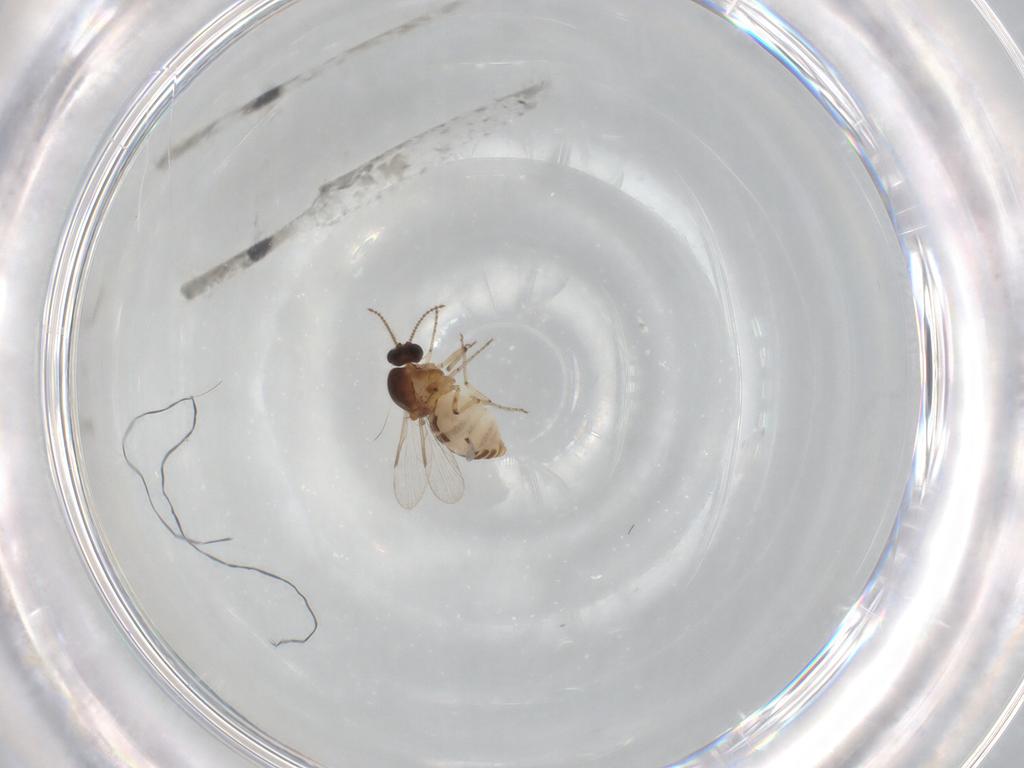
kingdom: Animalia
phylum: Arthropoda
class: Insecta
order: Diptera
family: Ceratopogonidae
